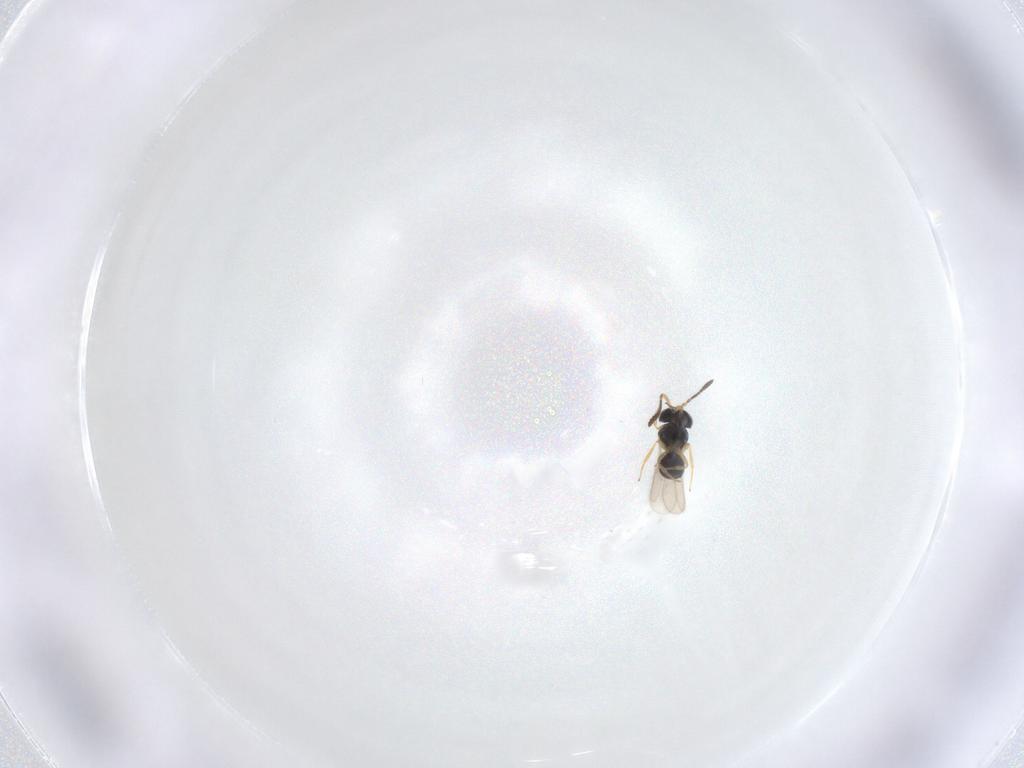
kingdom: Animalia
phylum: Arthropoda
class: Insecta
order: Hymenoptera
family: Scelionidae
